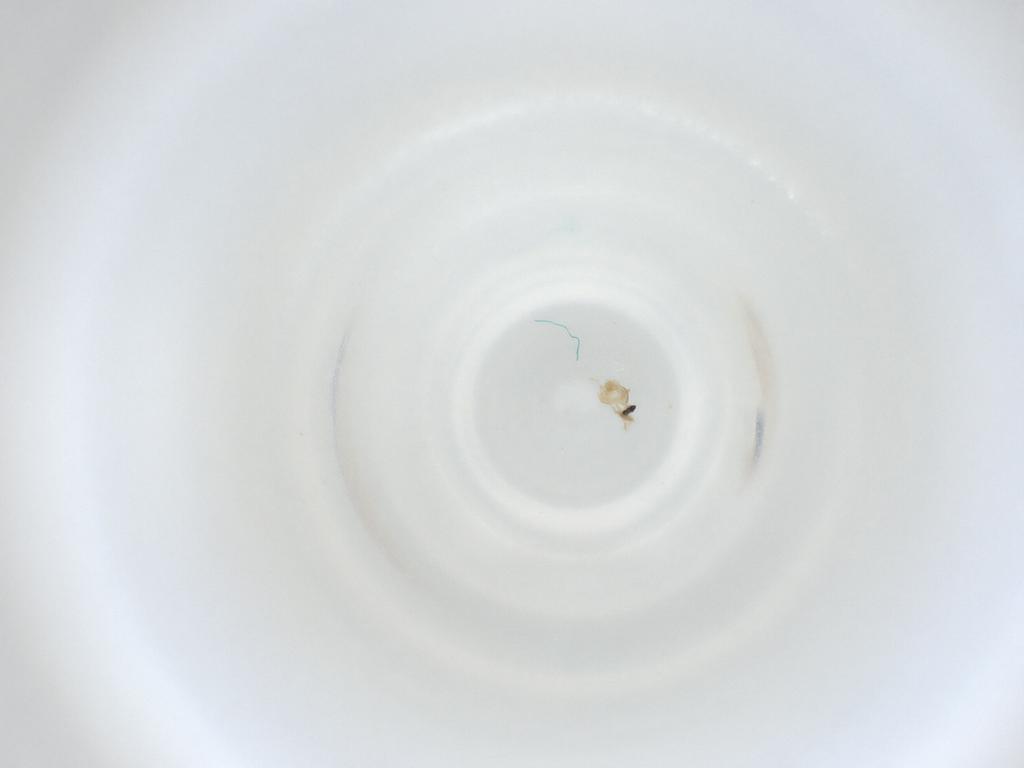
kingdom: Animalia
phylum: Arthropoda
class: Insecta
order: Diptera
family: Cecidomyiidae
